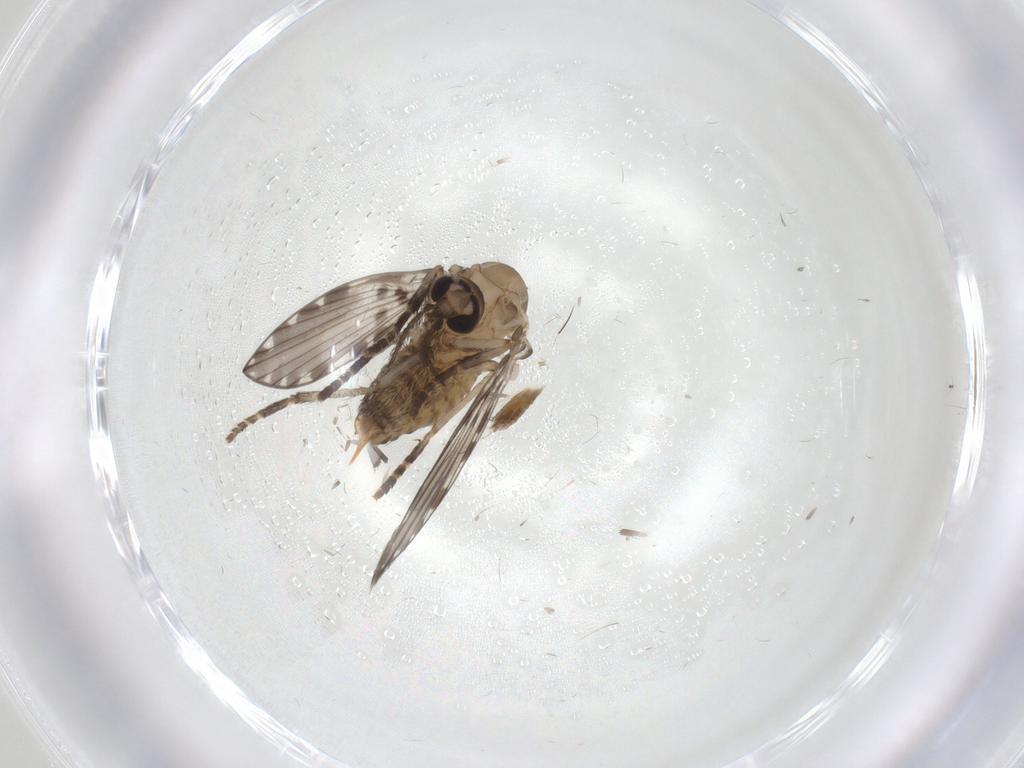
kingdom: Animalia
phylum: Arthropoda
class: Insecta
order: Diptera
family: Psychodidae
